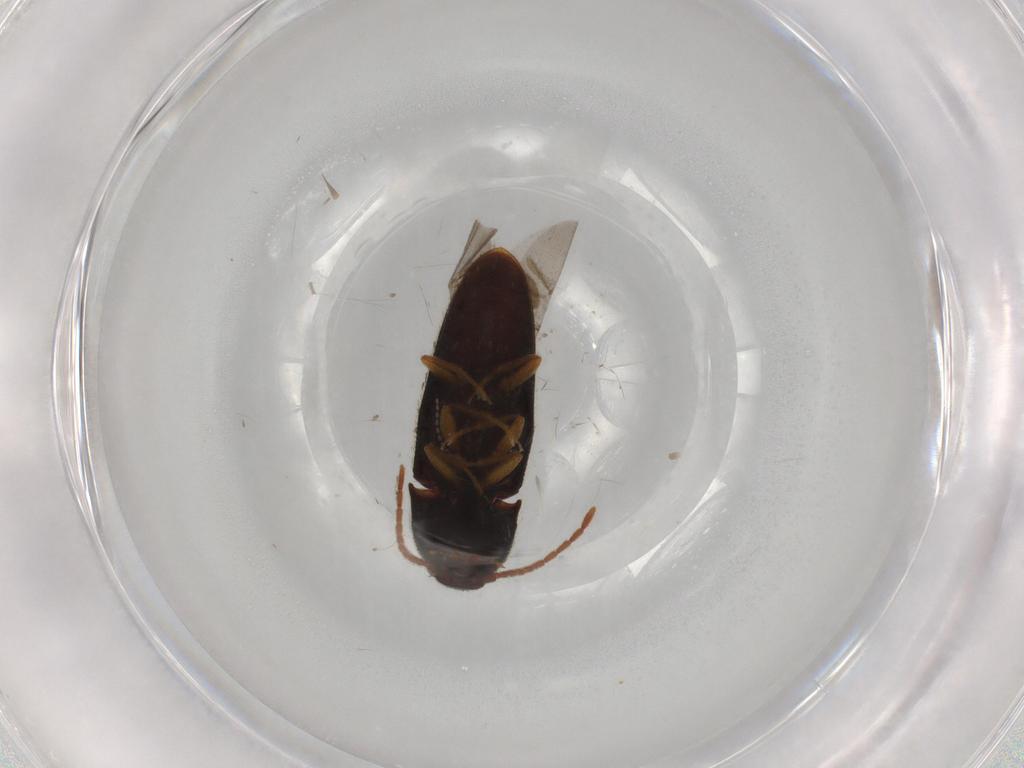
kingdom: Animalia
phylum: Arthropoda
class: Insecta
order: Coleoptera
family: Elateridae
